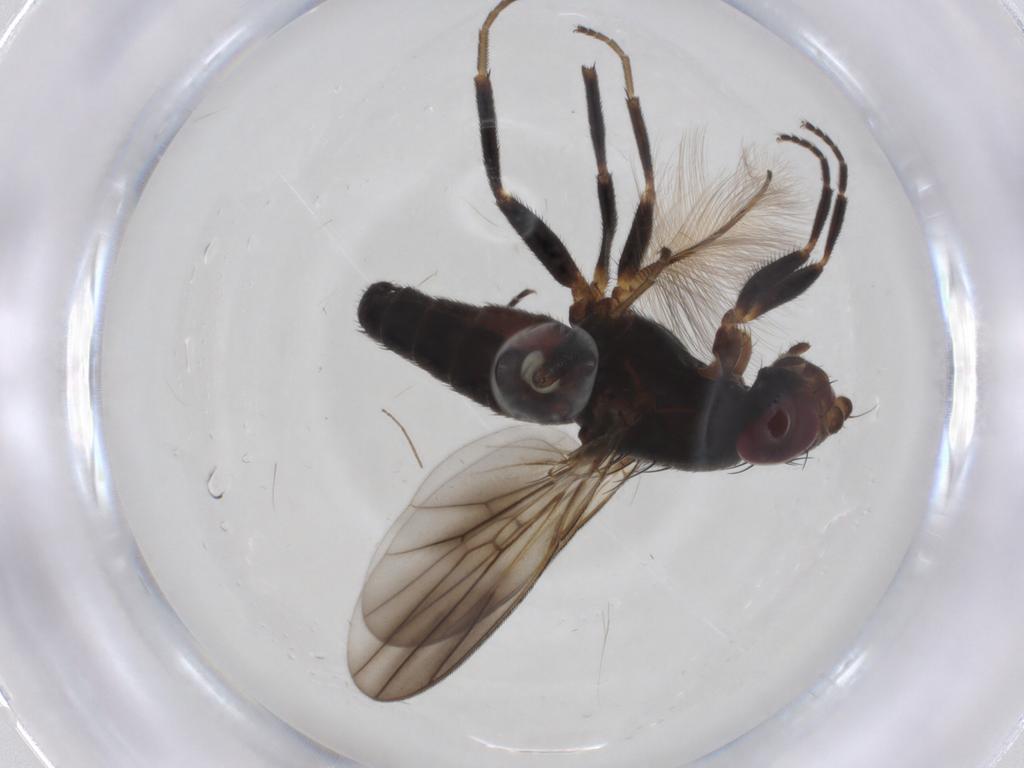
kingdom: Animalia
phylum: Arthropoda
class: Insecta
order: Diptera
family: Muscidae
